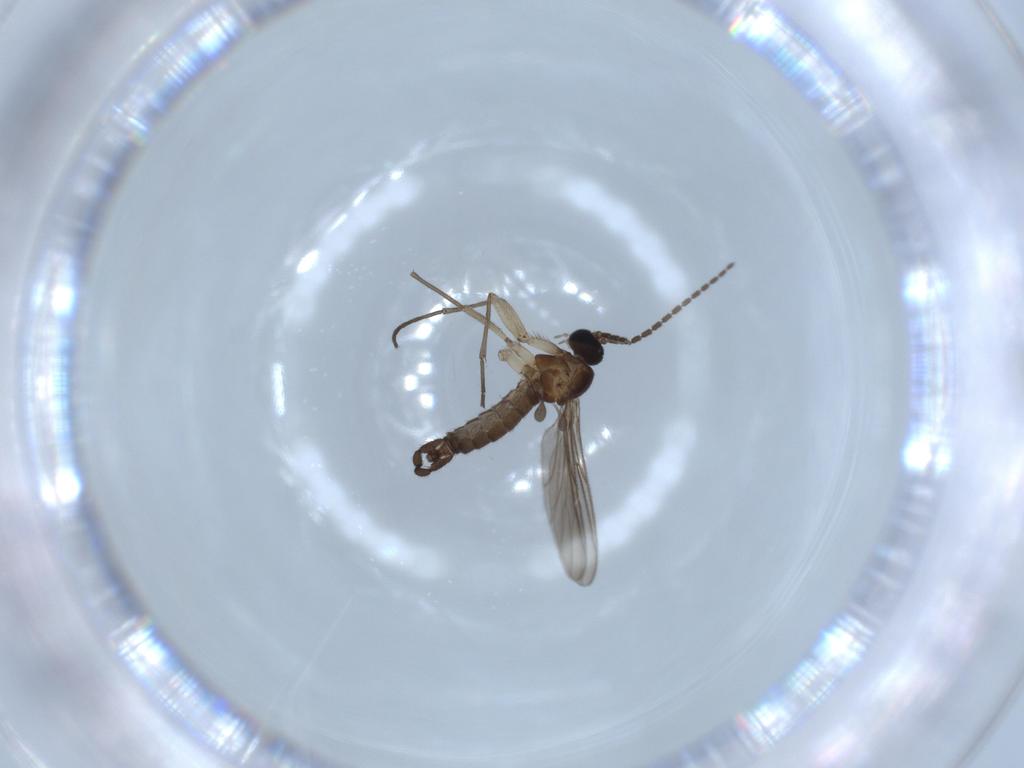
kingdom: Animalia
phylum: Arthropoda
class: Insecta
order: Diptera
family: Sciaridae
